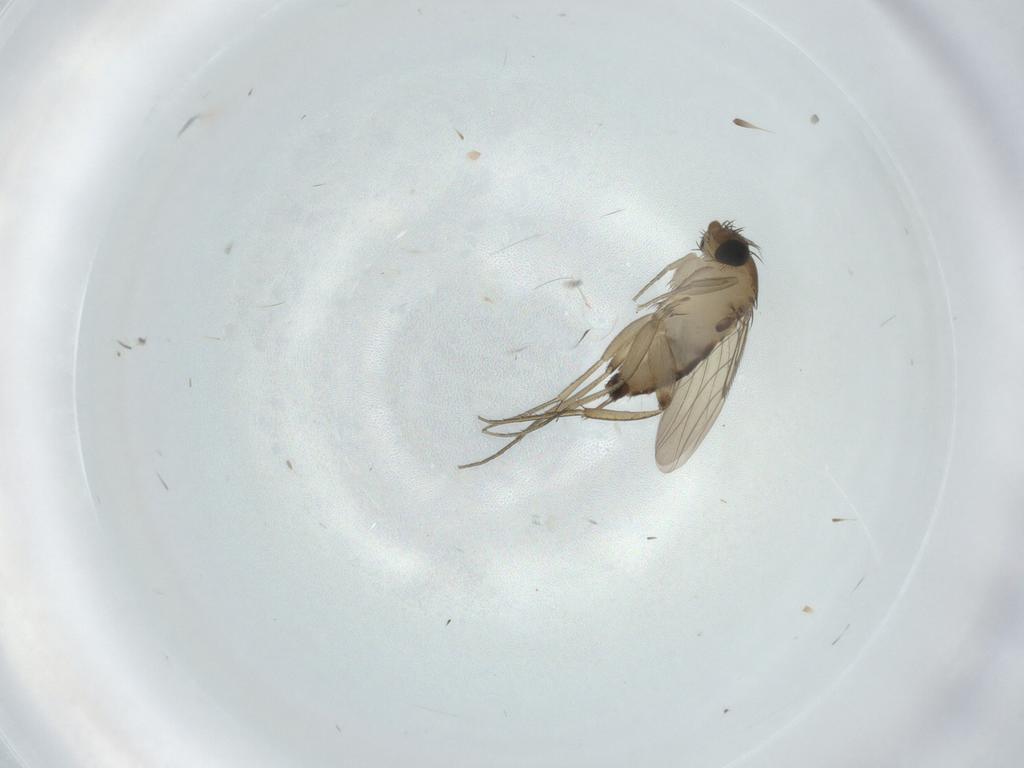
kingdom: Animalia
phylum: Arthropoda
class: Insecta
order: Diptera
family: Phoridae
